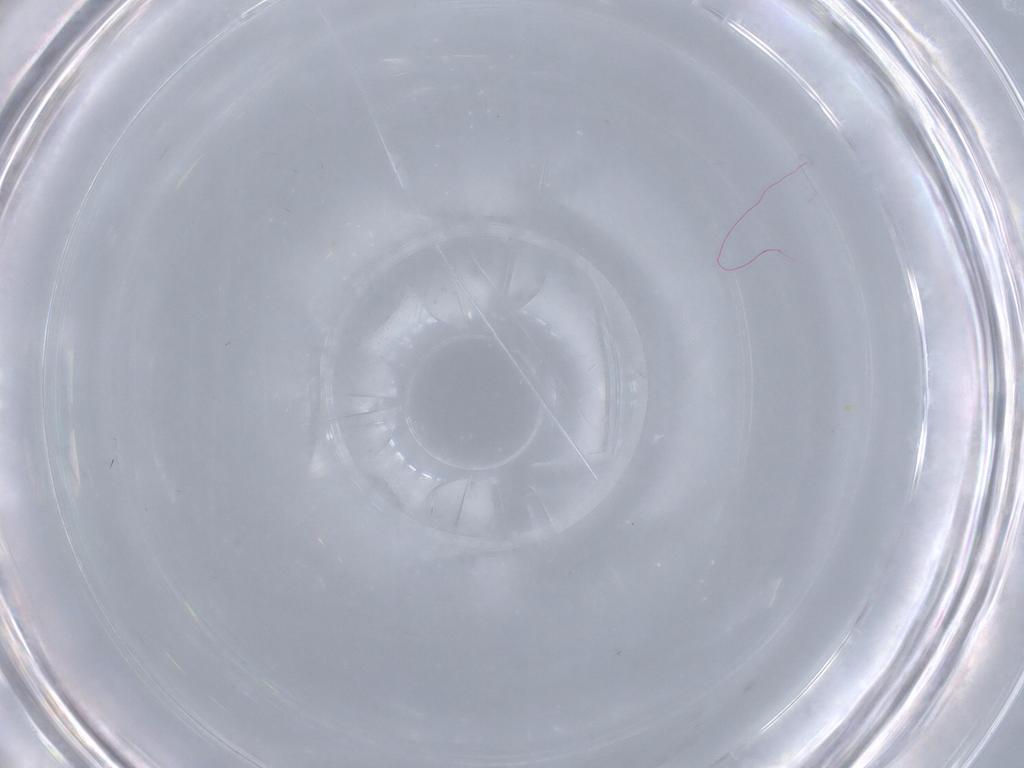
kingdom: Animalia
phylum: Arthropoda
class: Insecta
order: Diptera
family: Cecidomyiidae
